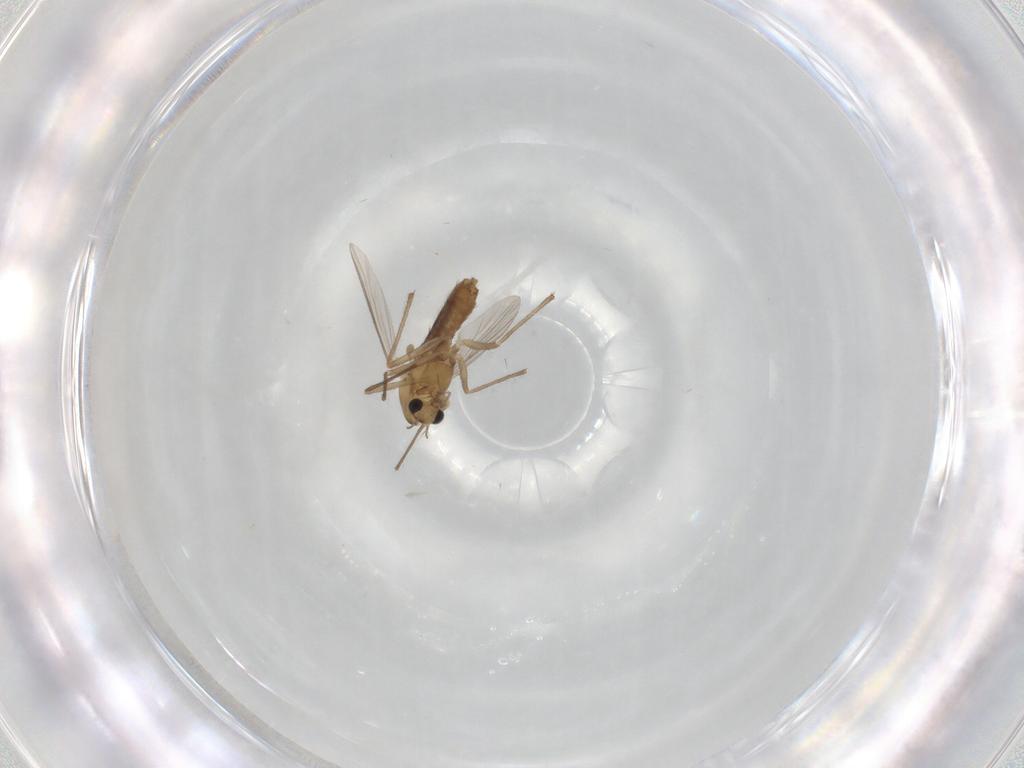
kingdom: Animalia
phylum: Arthropoda
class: Insecta
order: Diptera
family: Chironomidae
